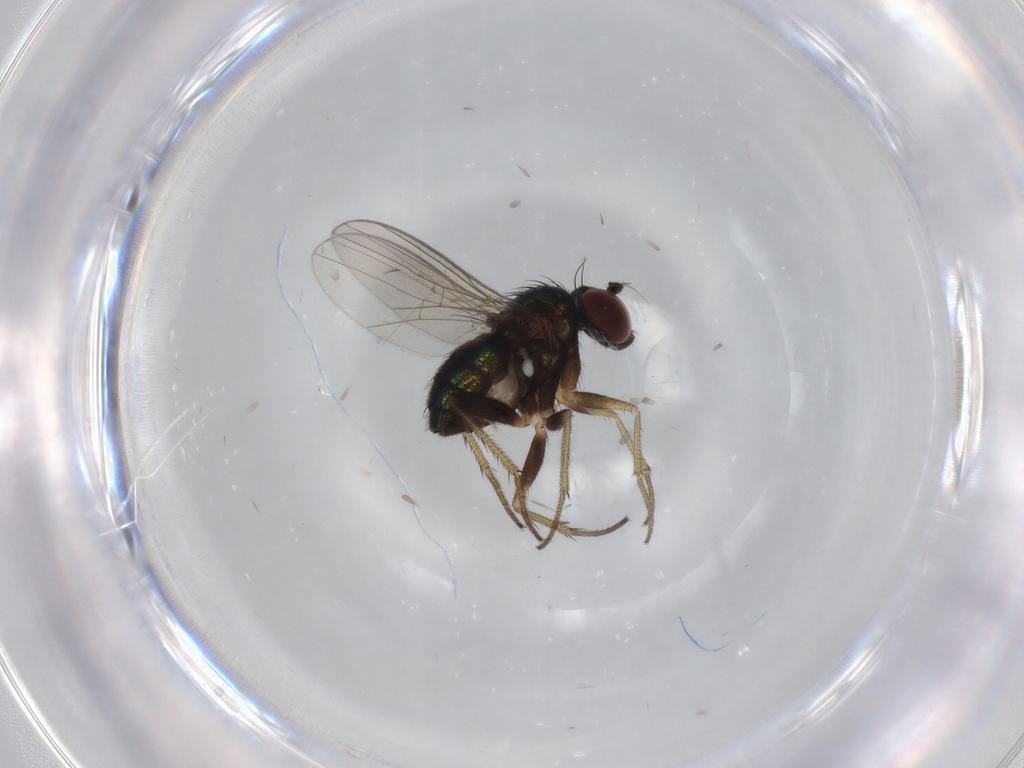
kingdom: Animalia
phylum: Arthropoda
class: Insecta
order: Diptera
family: Dolichopodidae
